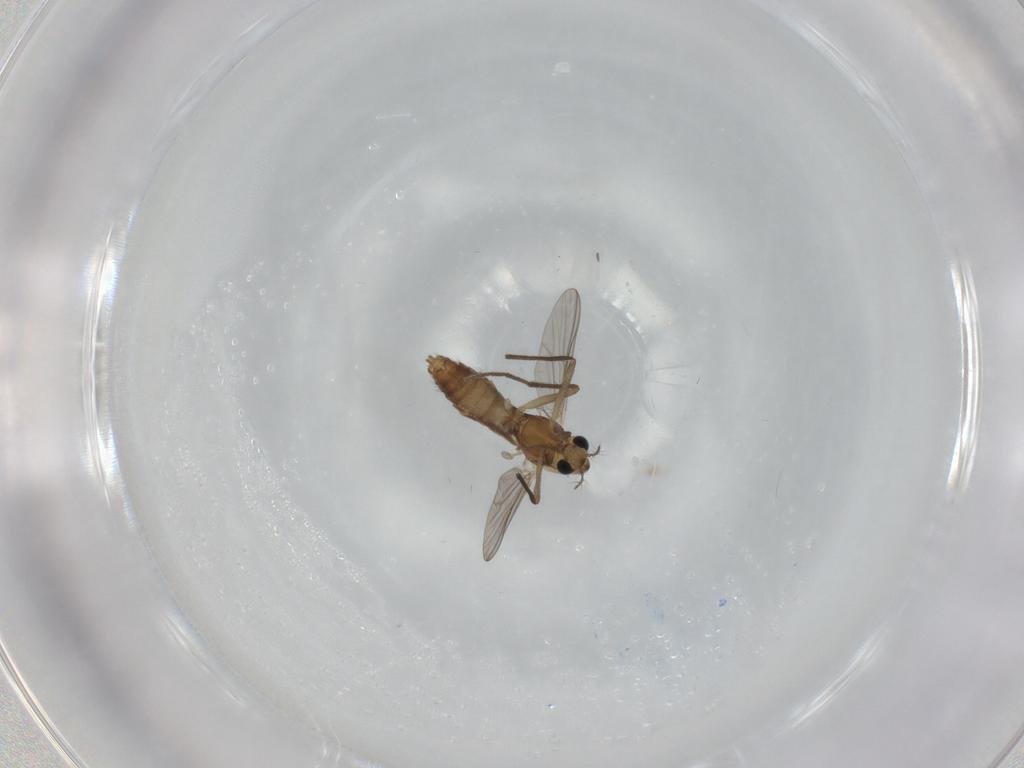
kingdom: Animalia
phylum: Arthropoda
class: Insecta
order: Diptera
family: Chironomidae
